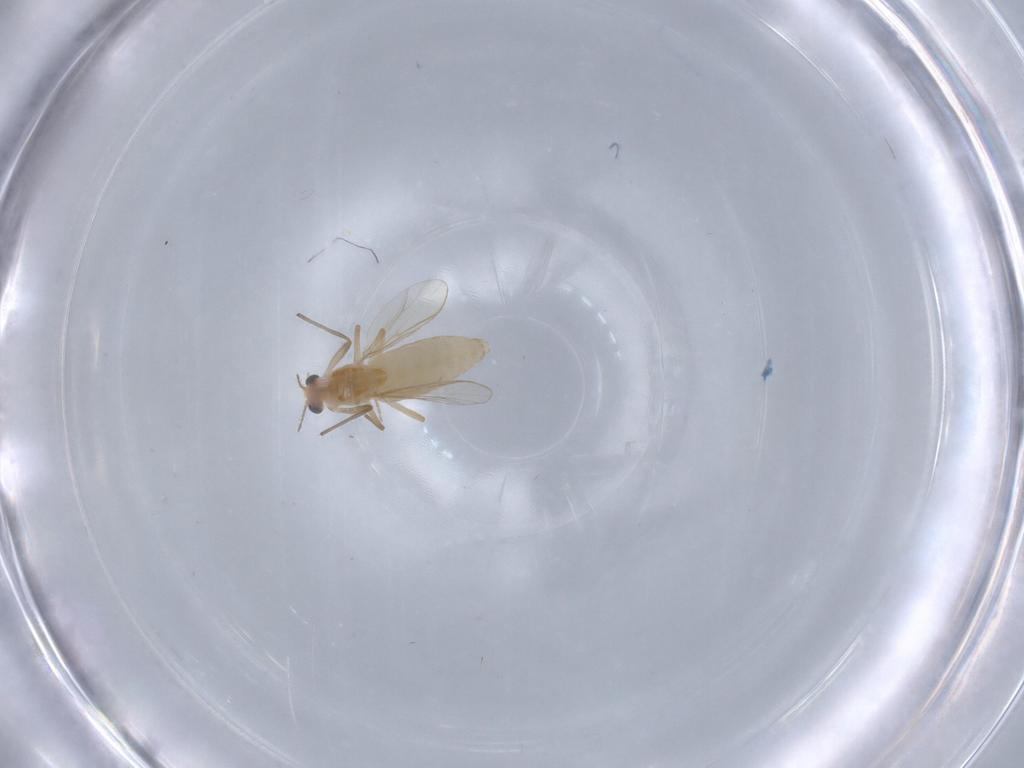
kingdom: Animalia
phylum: Arthropoda
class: Insecta
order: Diptera
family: Chironomidae
